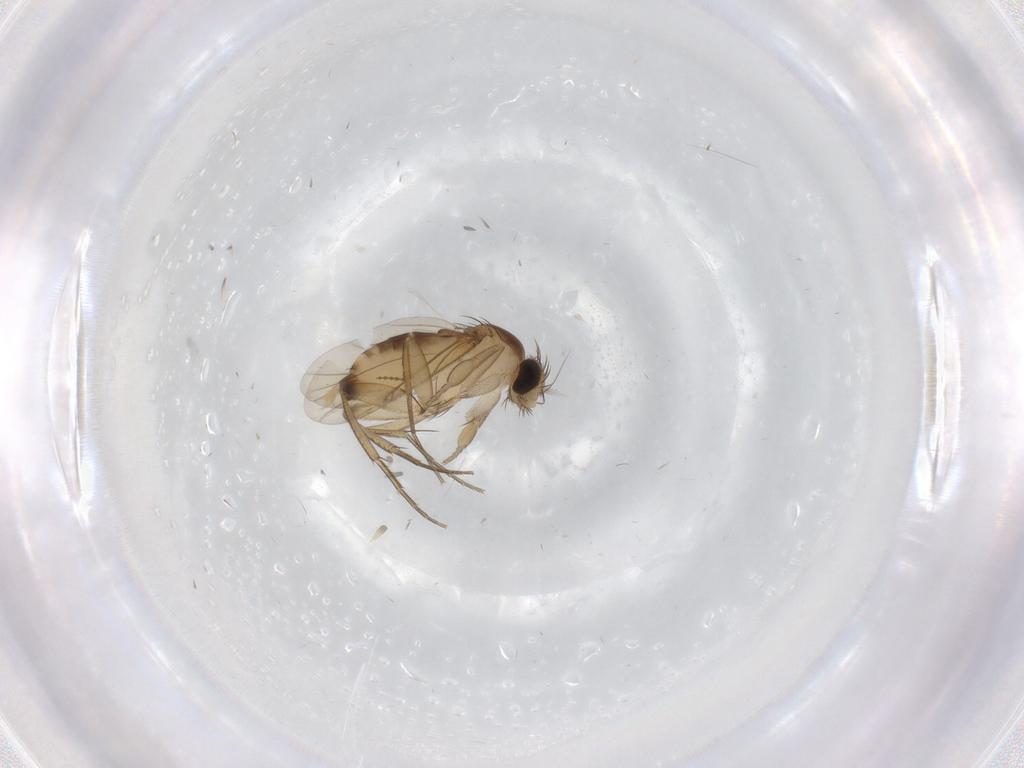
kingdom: Animalia
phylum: Arthropoda
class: Insecta
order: Diptera
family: Phoridae
